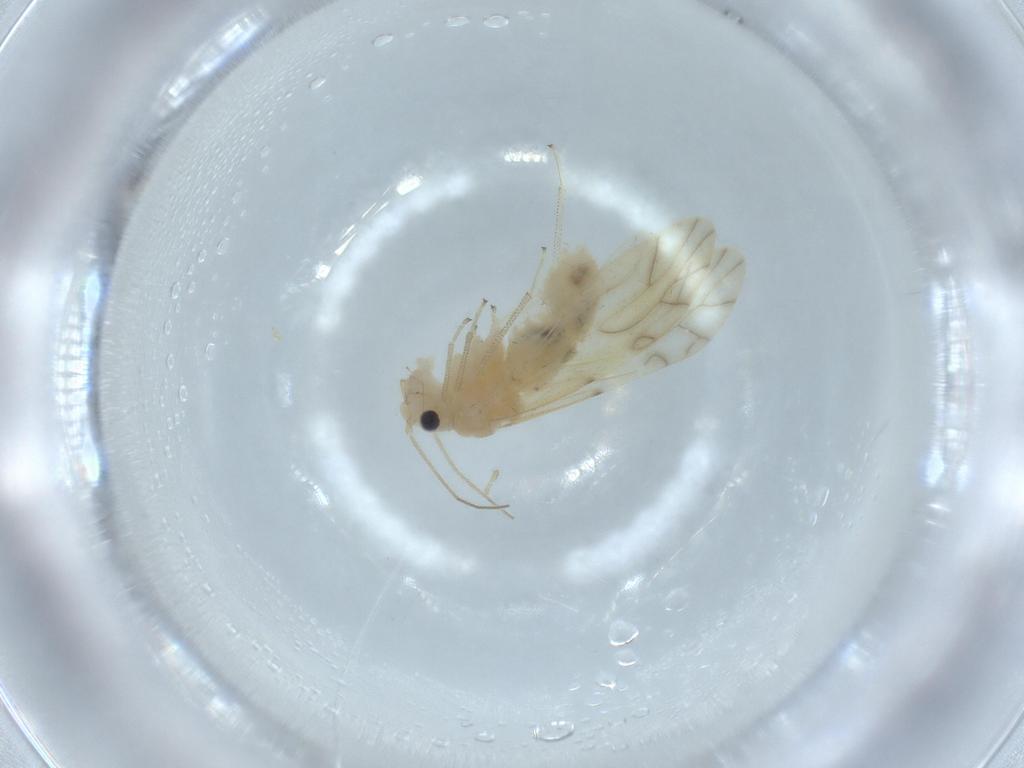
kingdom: Animalia
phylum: Arthropoda
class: Insecta
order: Psocodea
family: Caeciliusidae
